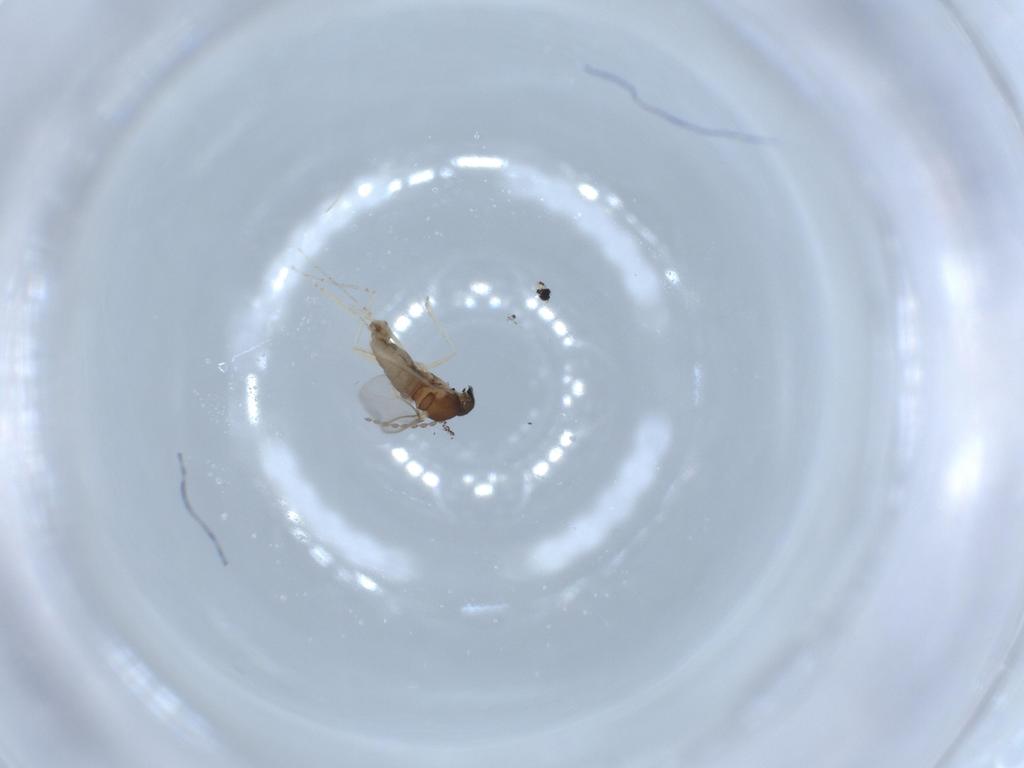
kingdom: Animalia
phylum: Arthropoda
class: Insecta
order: Diptera
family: Cecidomyiidae
